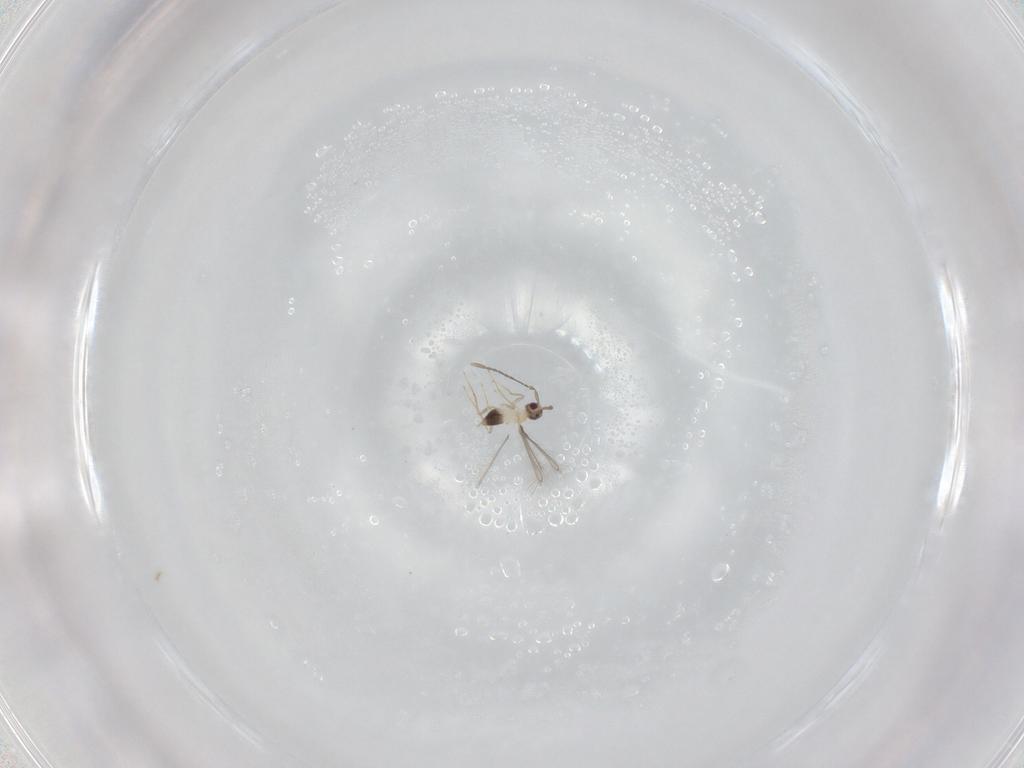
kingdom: Animalia
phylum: Arthropoda
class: Insecta
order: Hymenoptera
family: Mymaridae
